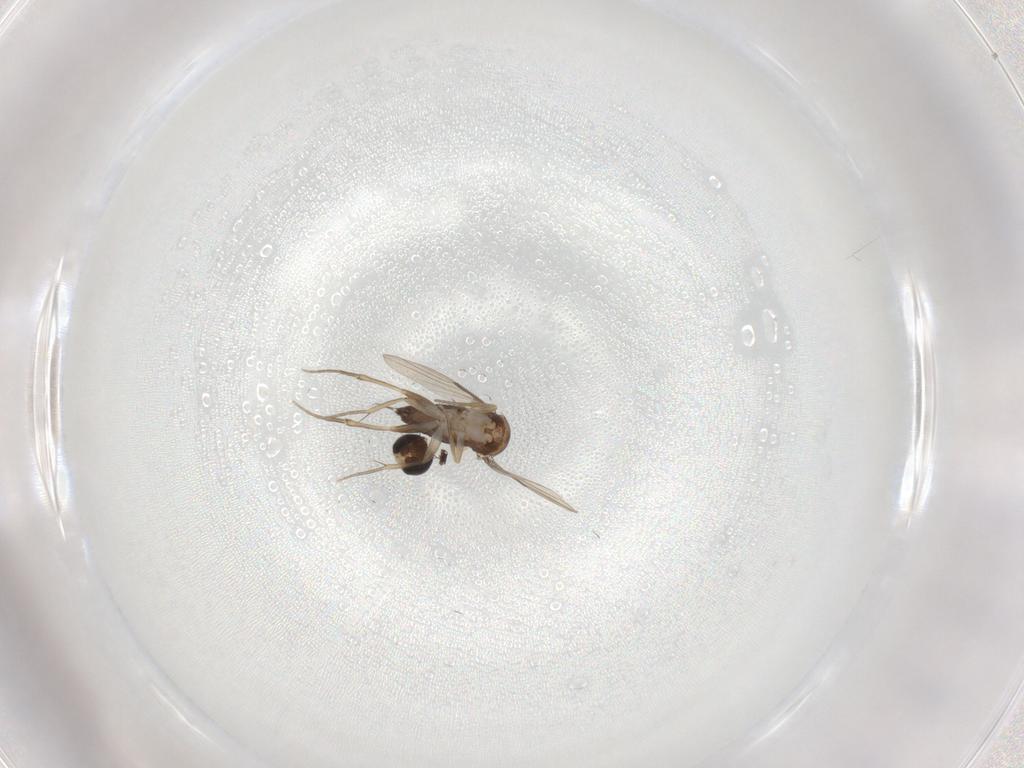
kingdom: Animalia
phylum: Arthropoda
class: Insecta
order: Diptera
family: Phoridae
